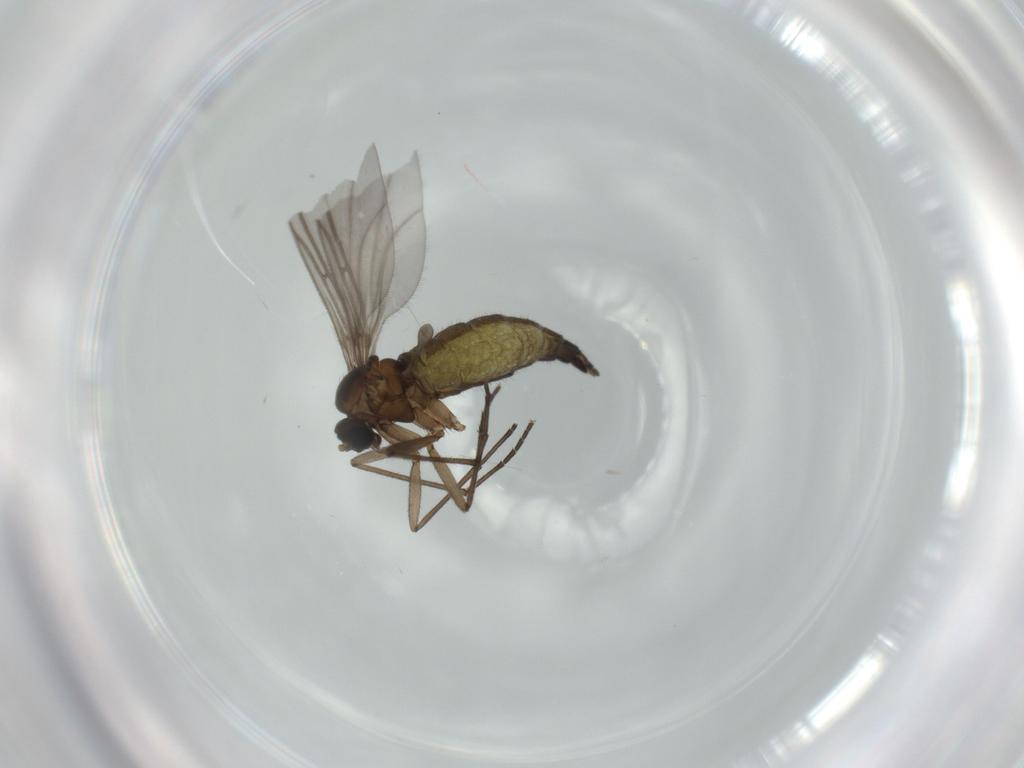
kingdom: Animalia
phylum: Arthropoda
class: Insecta
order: Diptera
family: Sciaridae
